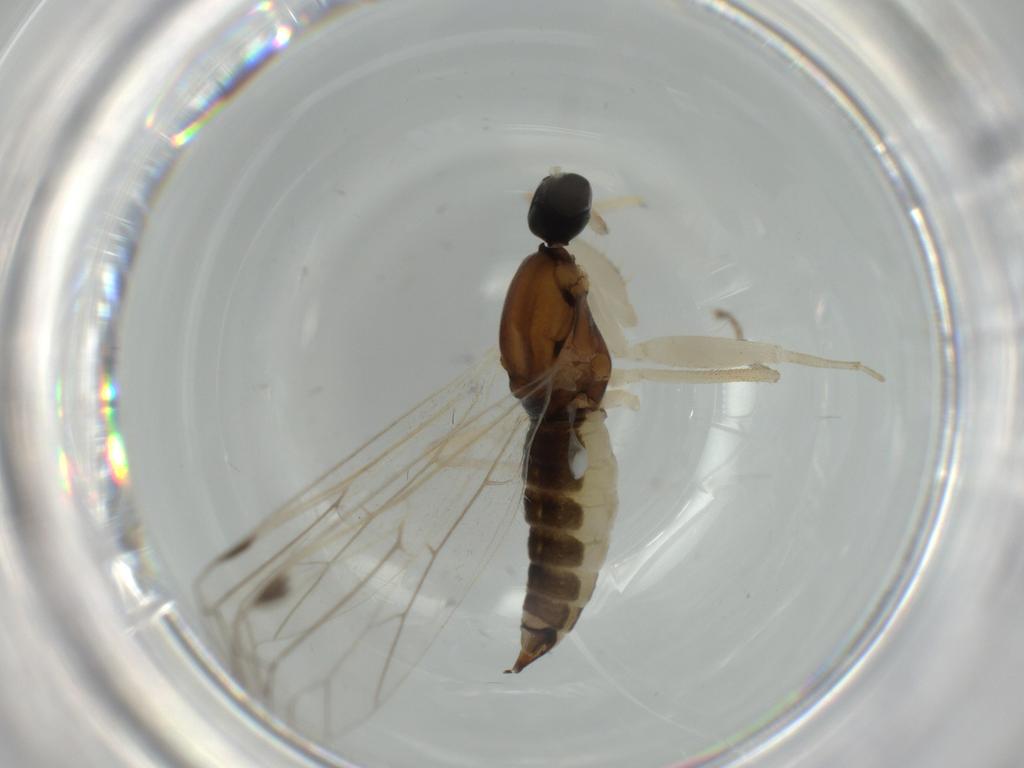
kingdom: Animalia
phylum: Arthropoda
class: Insecta
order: Diptera
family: Empididae
